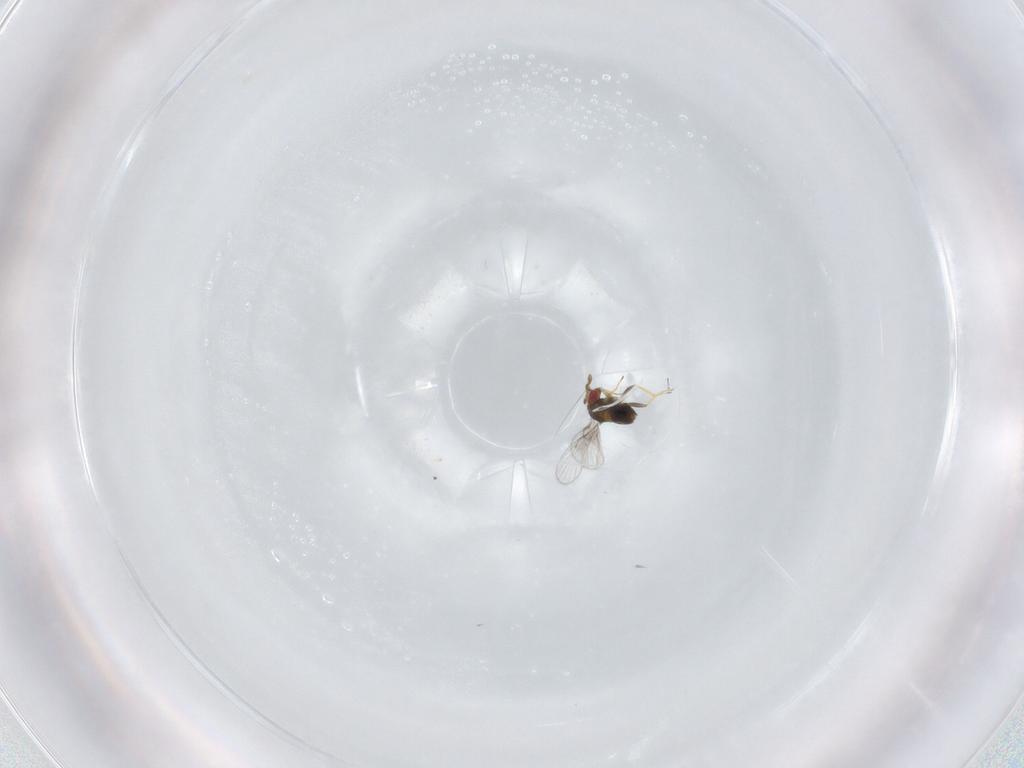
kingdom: Animalia
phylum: Arthropoda
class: Insecta
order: Hymenoptera
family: Trichogrammatidae
